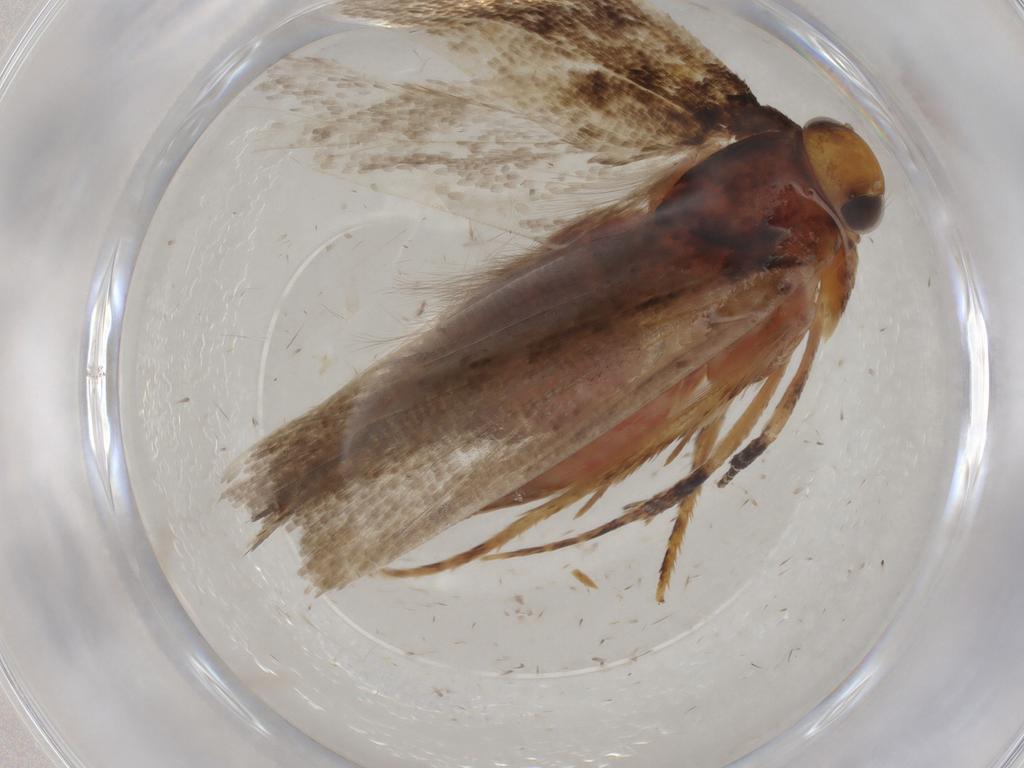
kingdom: Animalia
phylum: Arthropoda
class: Insecta
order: Lepidoptera
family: Gelechiidae
